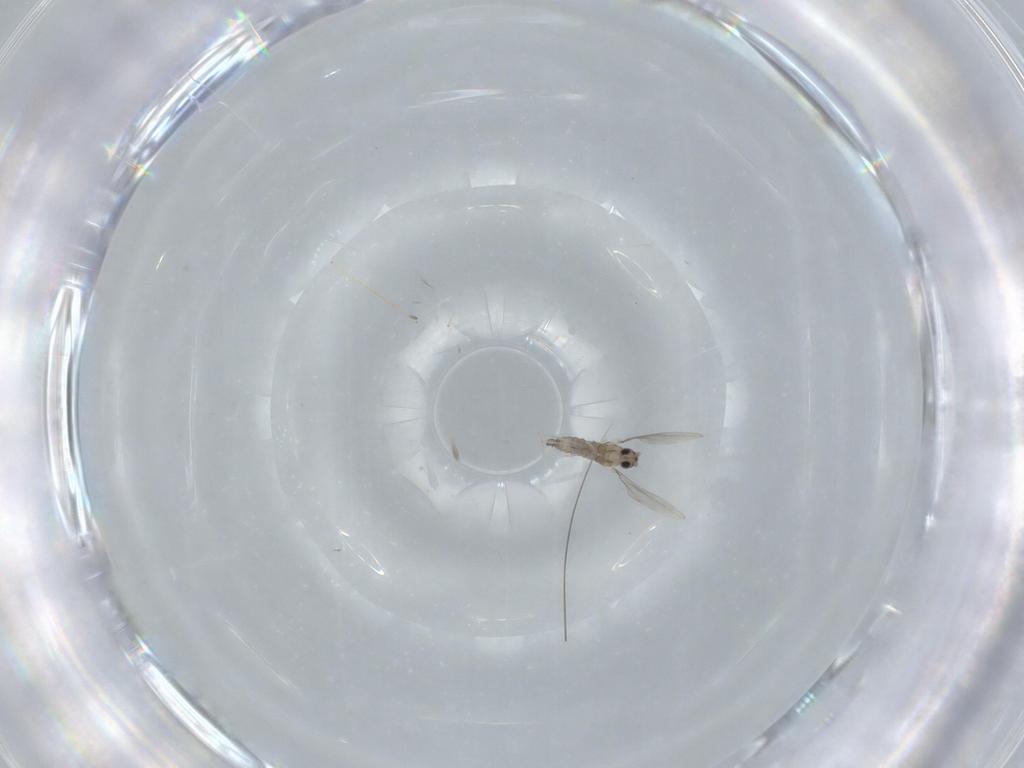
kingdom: Animalia
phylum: Arthropoda
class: Insecta
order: Diptera
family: Cecidomyiidae
